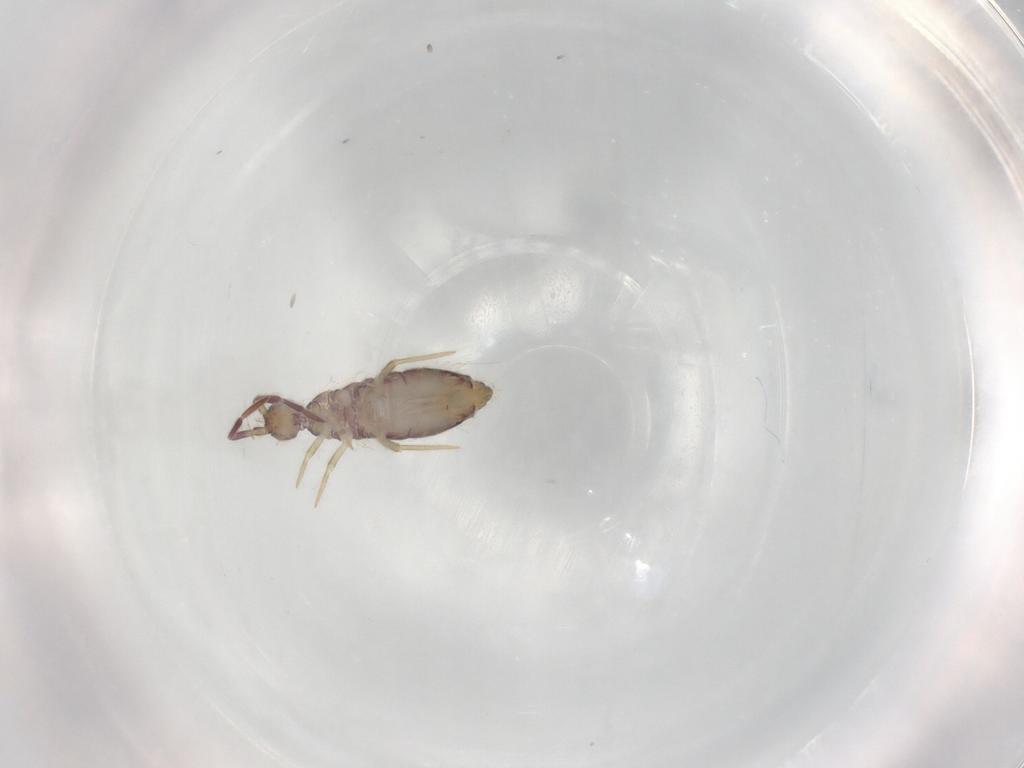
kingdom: Animalia
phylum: Arthropoda
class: Collembola
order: Entomobryomorpha
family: Entomobryidae
